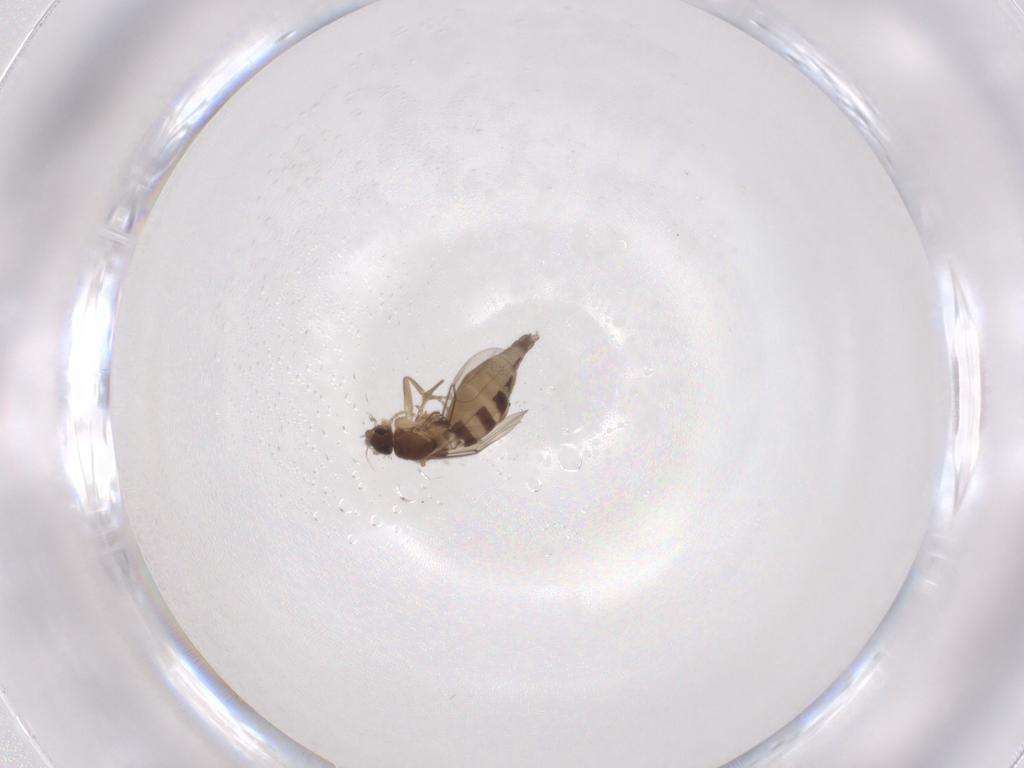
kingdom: Animalia
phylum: Arthropoda
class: Insecta
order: Diptera
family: Phoridae
